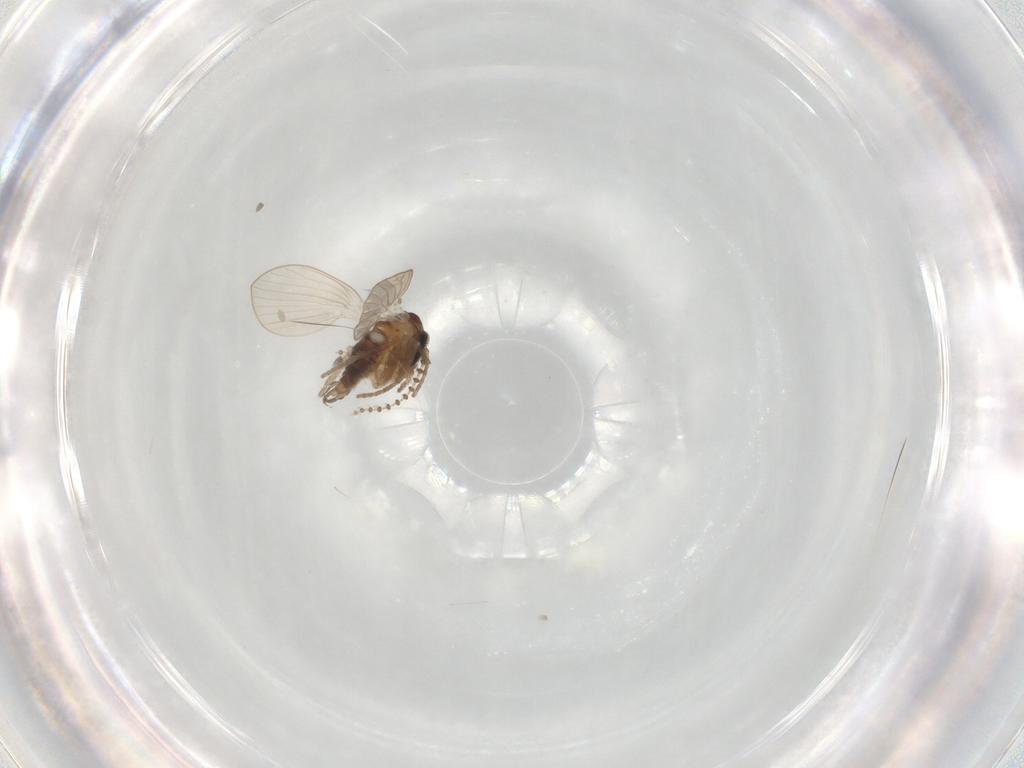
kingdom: Animalia
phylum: Arthropoda
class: Insecta
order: Diptera
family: Psychodidae
